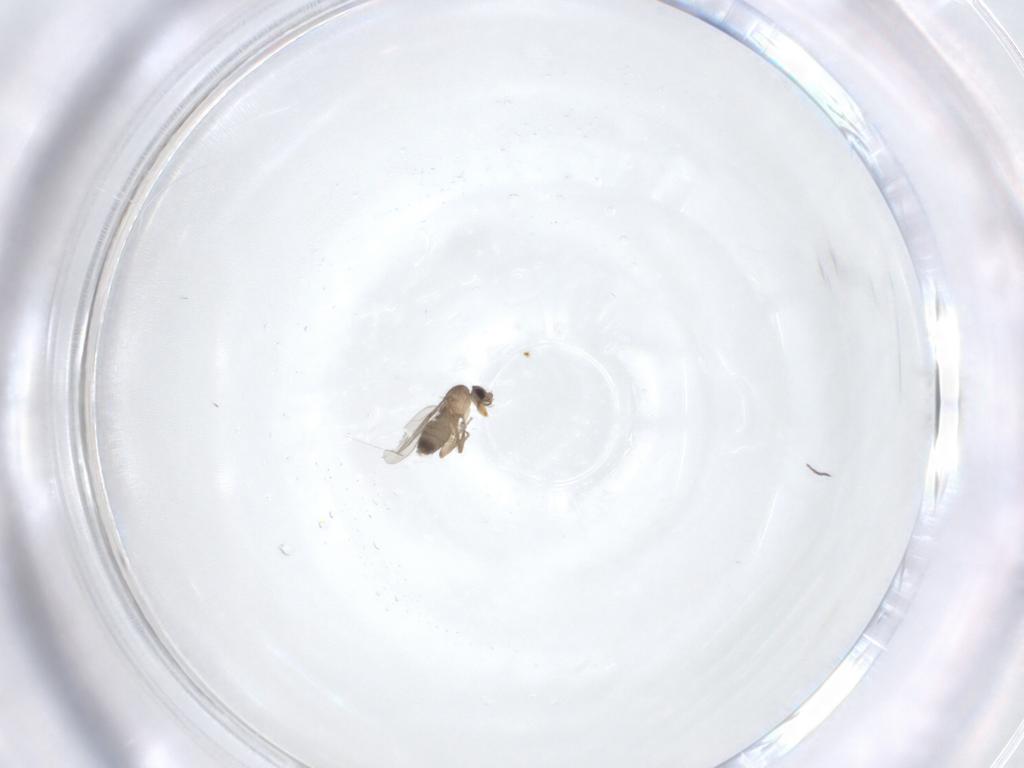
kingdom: Animalia
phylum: Arthropoda
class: Insecta
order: Diptera
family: Cecidomyiidae
